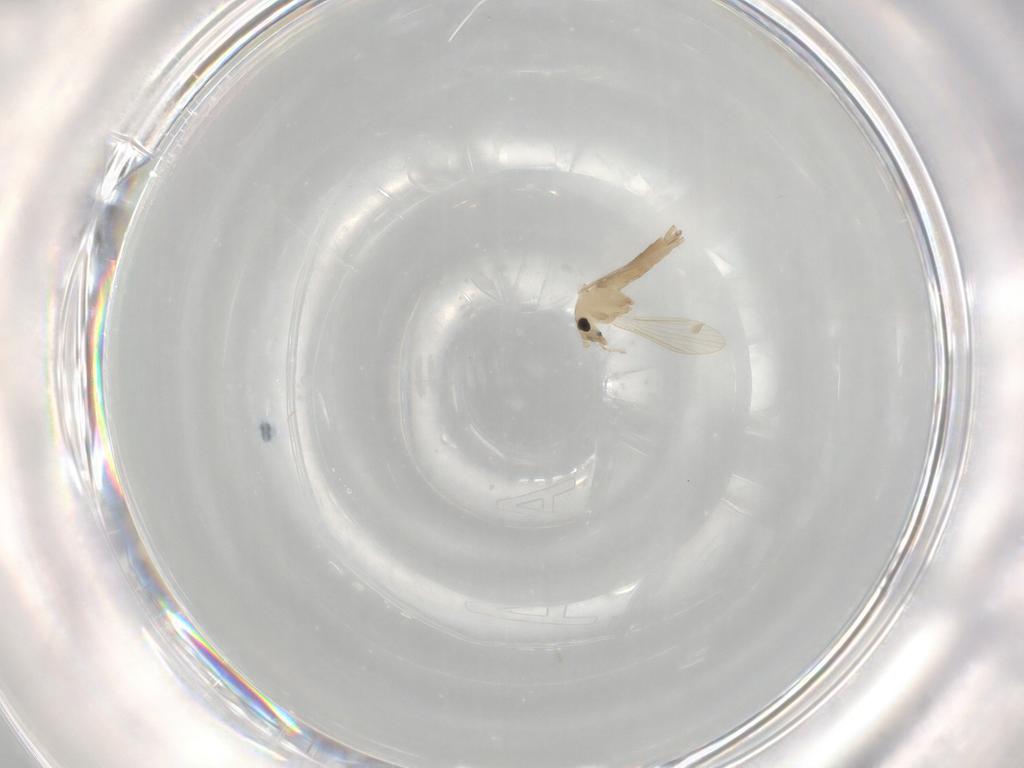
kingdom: Animalia
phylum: Arthropoda
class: Insecta
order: Diptera
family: Psychodidae
